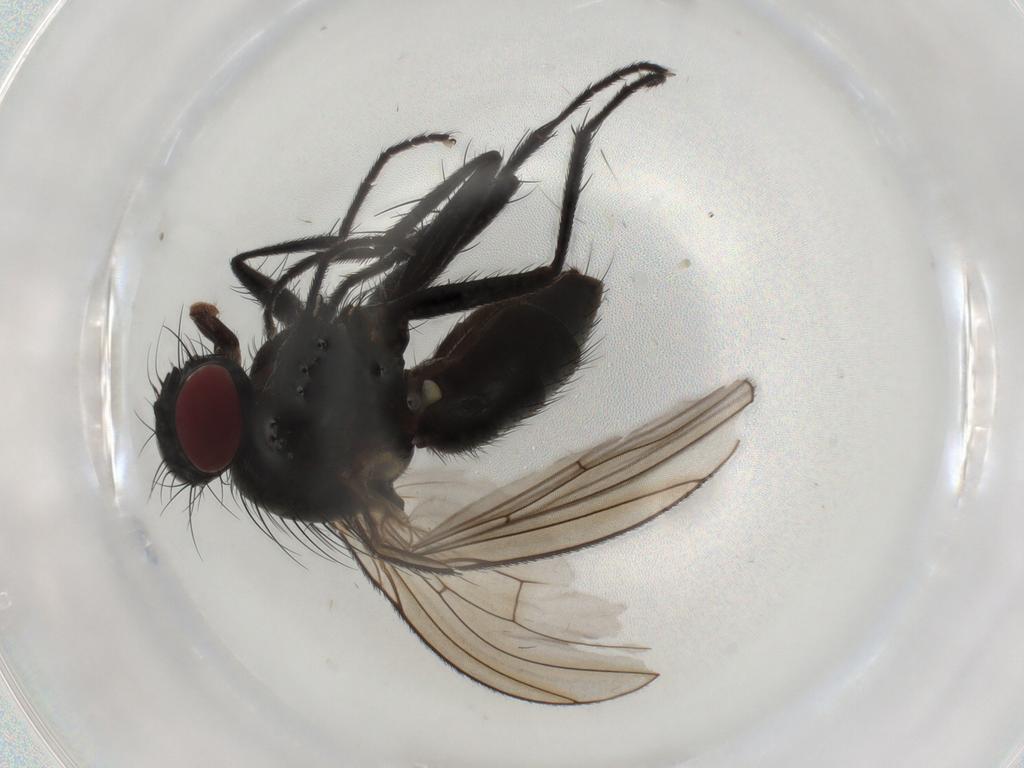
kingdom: Animalia
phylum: Arthropoda
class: Insecta
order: Diptera
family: Muscidae
